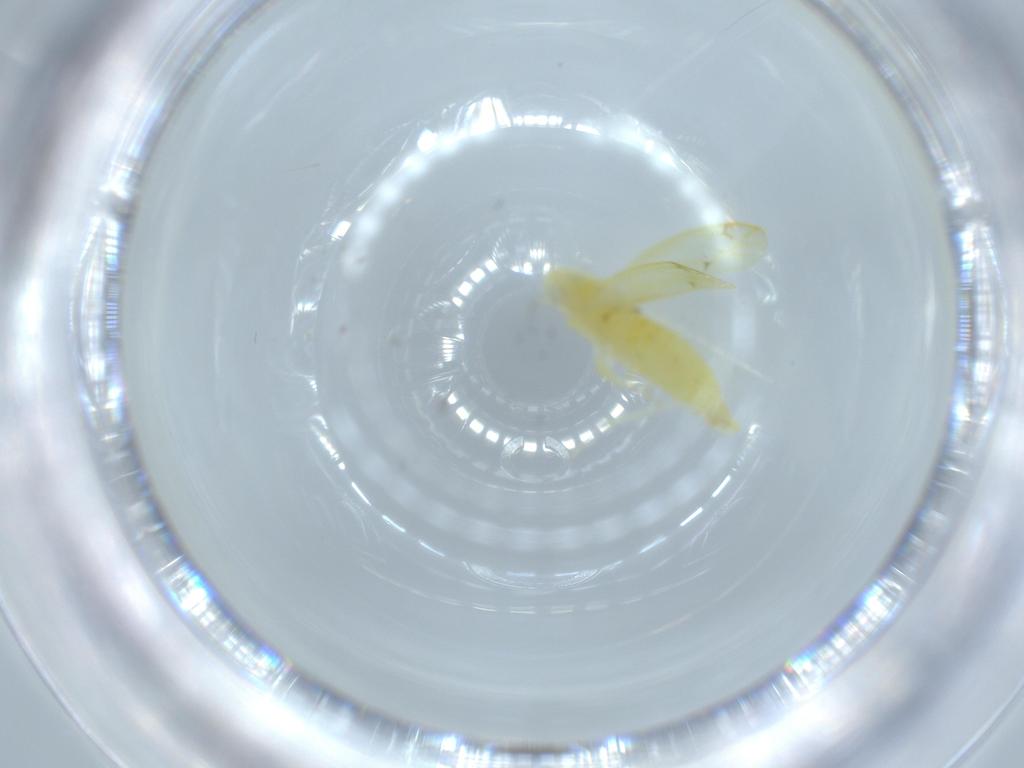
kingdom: Animalia
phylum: Arthropoda
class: Insecta
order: Hemiptera
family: Cicadellidae
